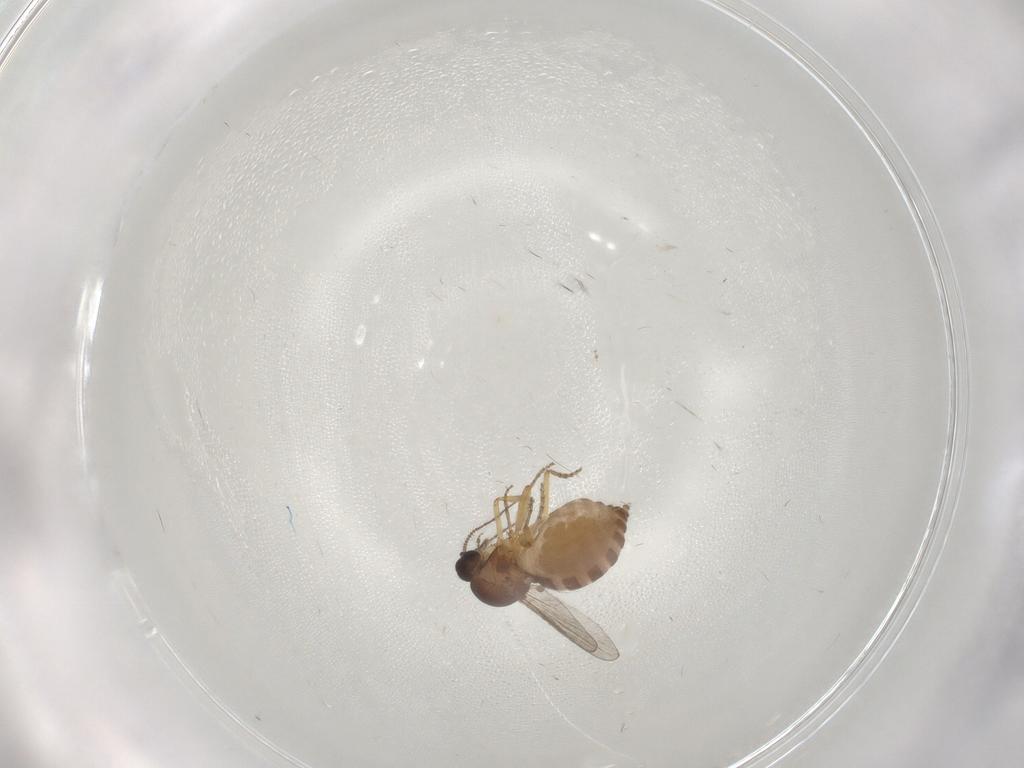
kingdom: Animalia
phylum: Arthropoda
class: Insecta
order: Diptera
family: Ceratopogonidae
